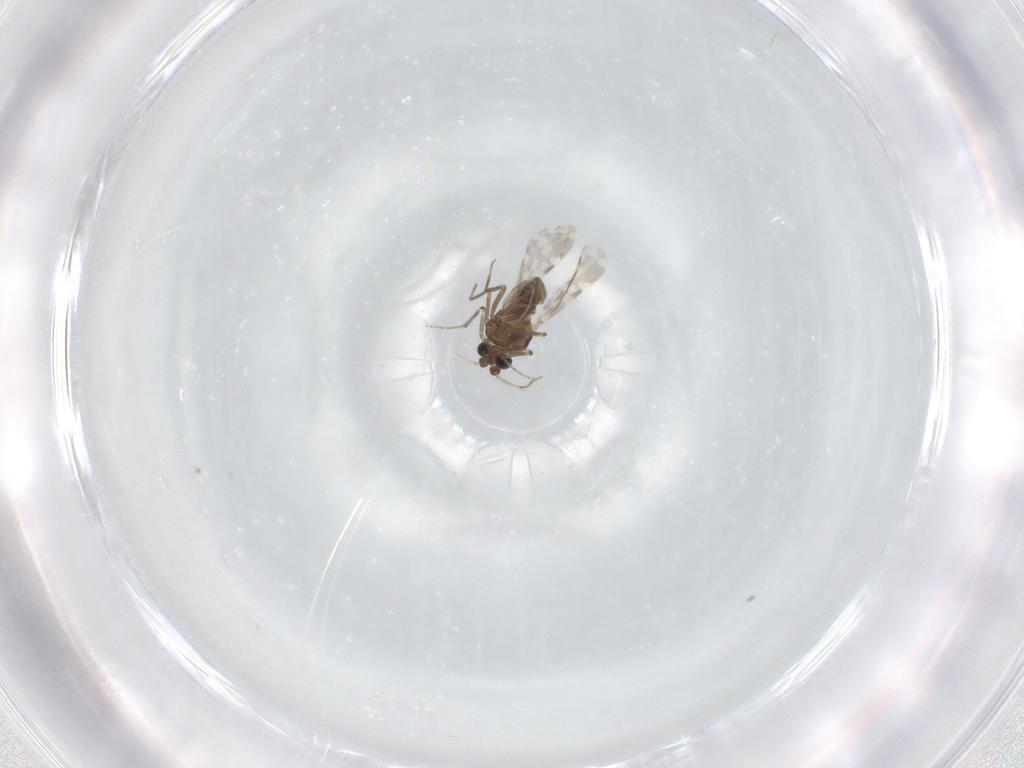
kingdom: Animalia
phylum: Arthropoda
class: Insecta
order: Diptera
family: Ceratopogonidae
